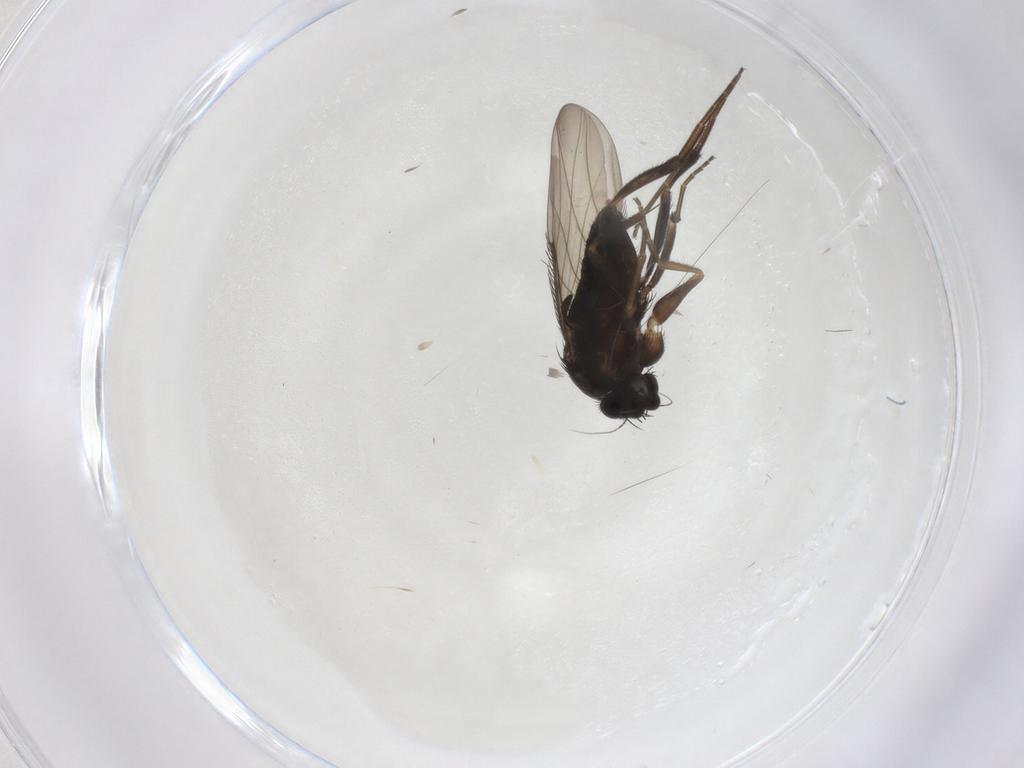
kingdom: Animalia
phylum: Arthropoda
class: Insecta
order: Diptera
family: Phoridae
